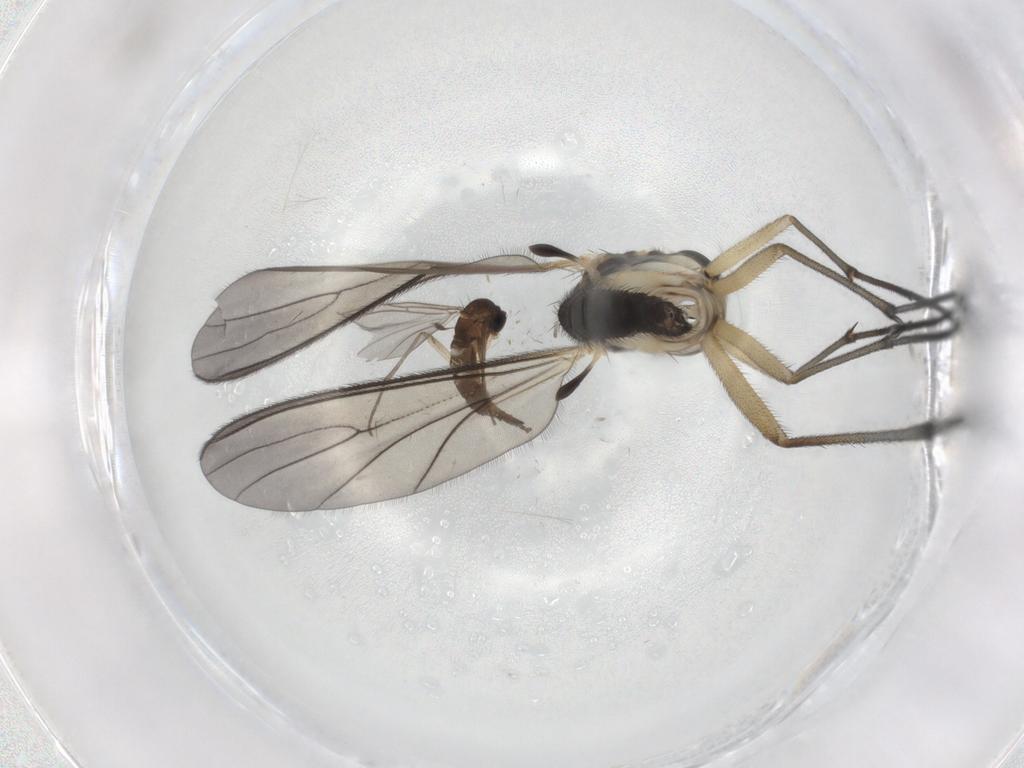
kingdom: Animalia
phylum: Arthropoda
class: Insecta
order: Diptera
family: Sciaridae
